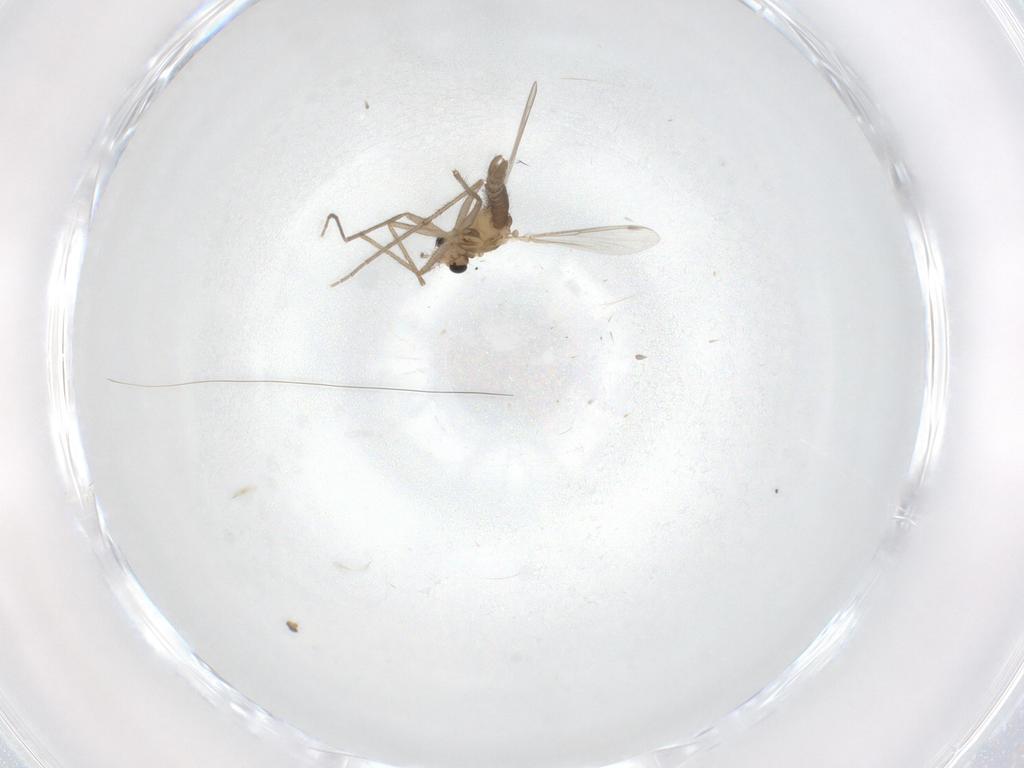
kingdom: Animalia
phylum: Arthropoda
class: Insecta
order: Diptera
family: Chironomidae
